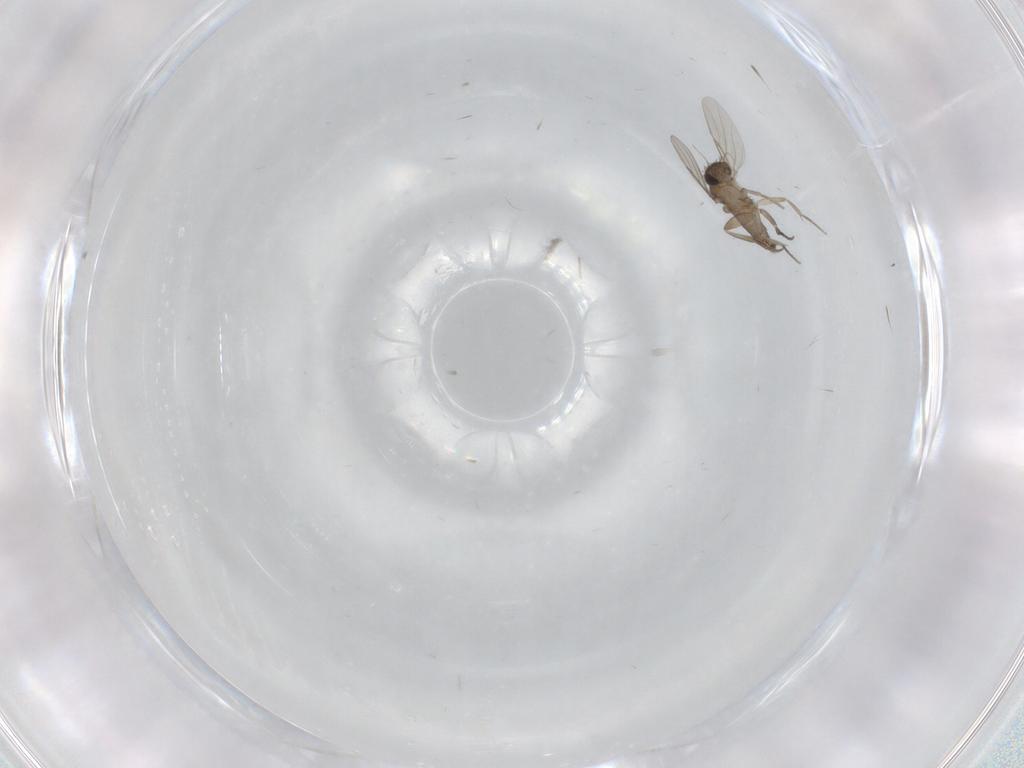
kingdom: Animalia
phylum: Arthropoda
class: Insecta
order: Diptera
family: Phoridae
